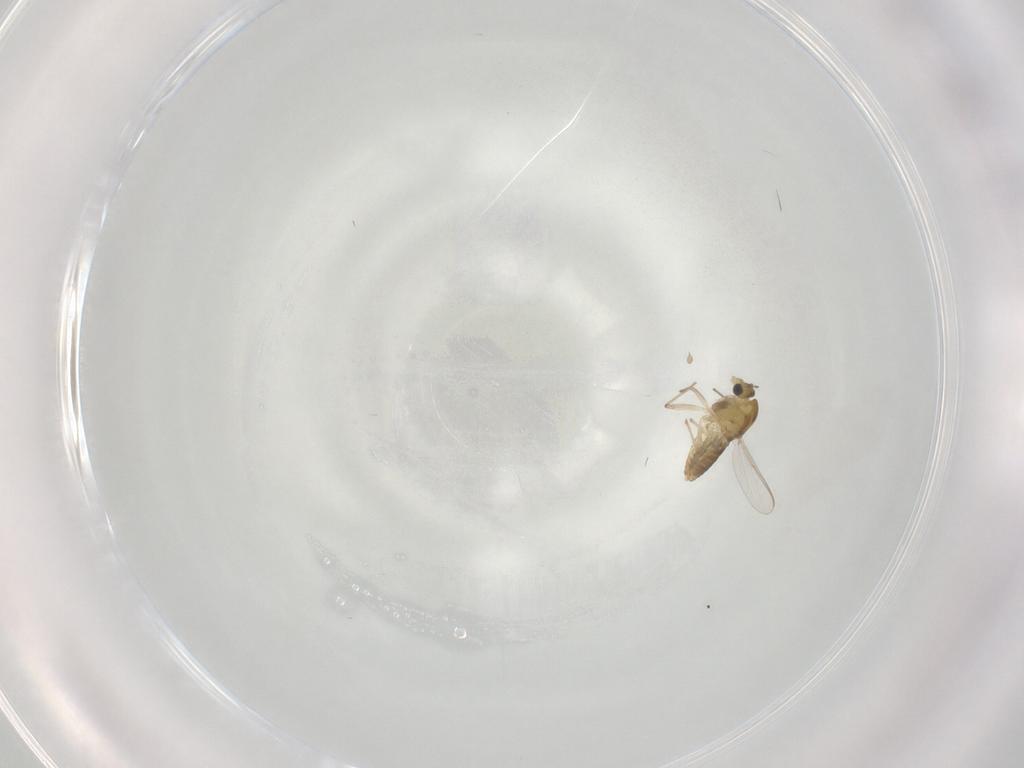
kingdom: Animalia
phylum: Arthropoda
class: Insecta
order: Diptera
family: Chironomidae
